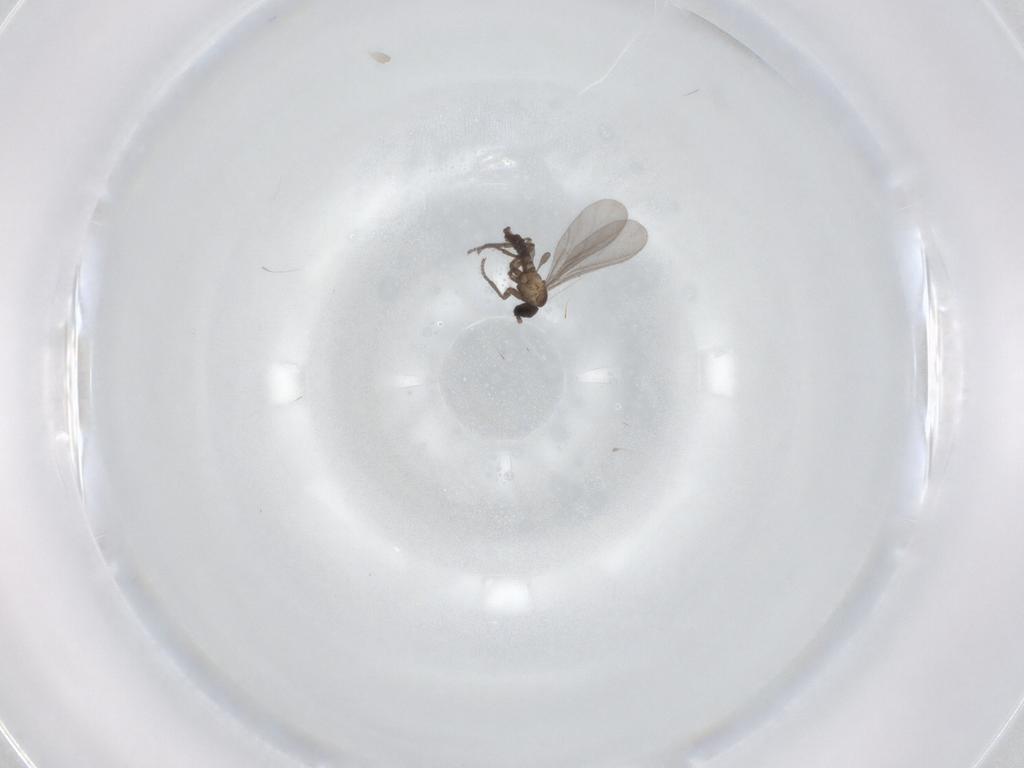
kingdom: Animalia
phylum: Arthropoda
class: Insecta
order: Diptera
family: Sciaridae
